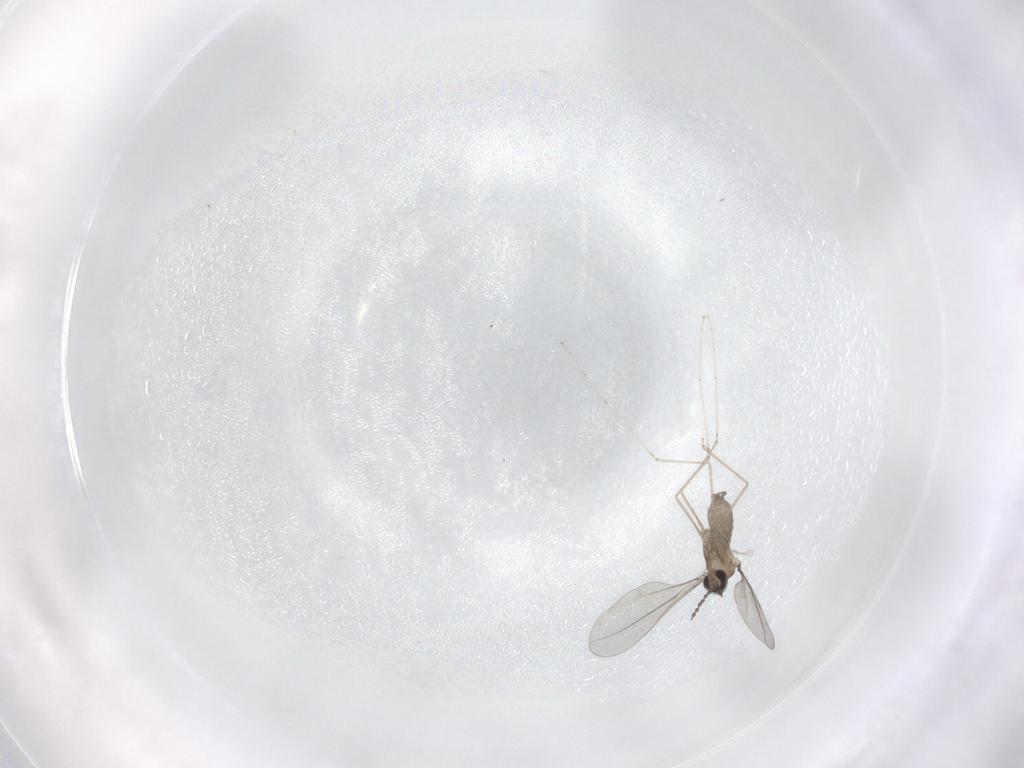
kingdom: Animalia
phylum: Arthropoda
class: Insecta
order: Diptera
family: Cecidomyiidae
